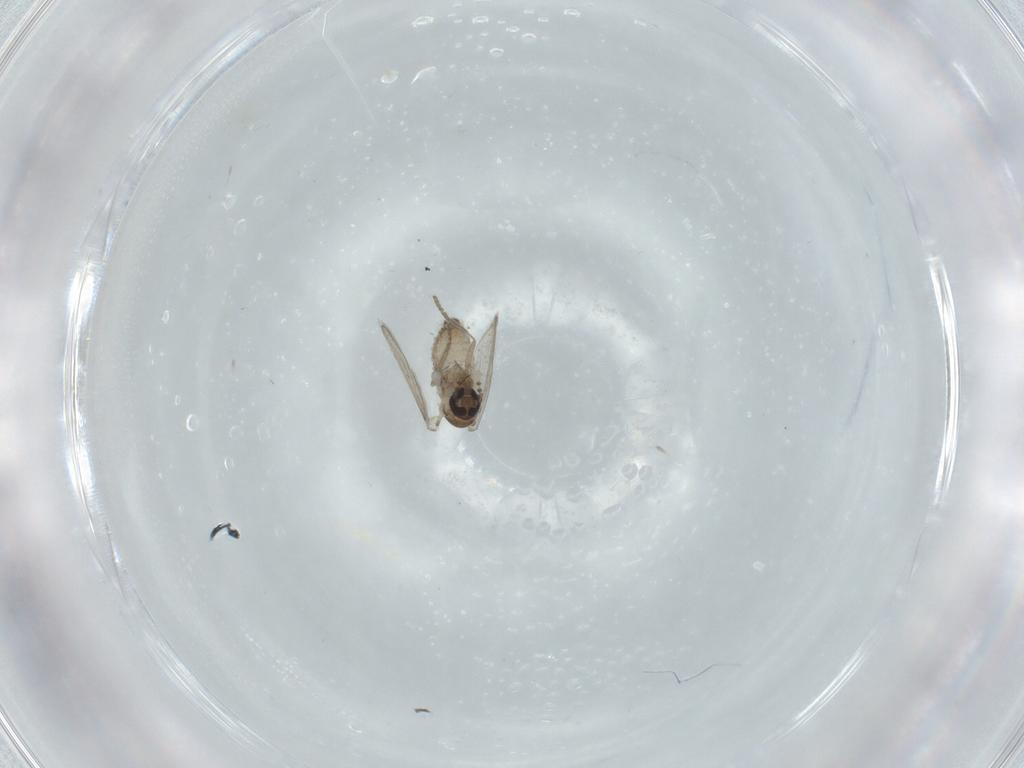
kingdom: Animalia
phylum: Arthropoda
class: Insecta
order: Diptera
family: Psychodidae
